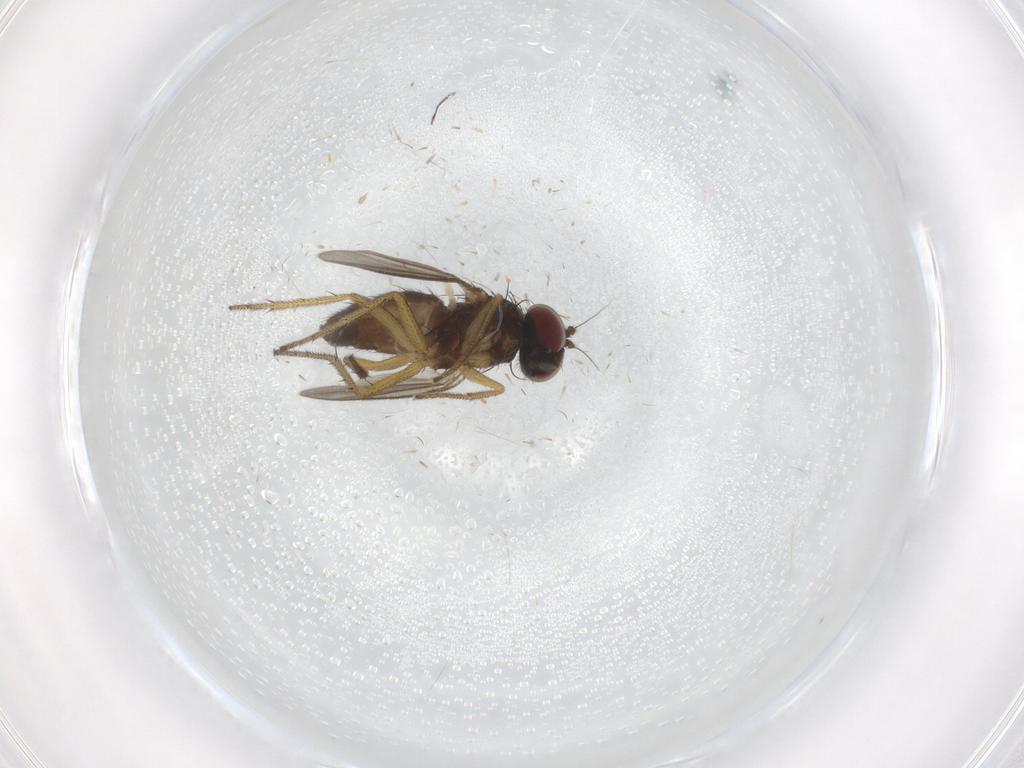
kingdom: Animalia
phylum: Arthropoda
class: Insecta
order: Diptera
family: Dolichopodidae
